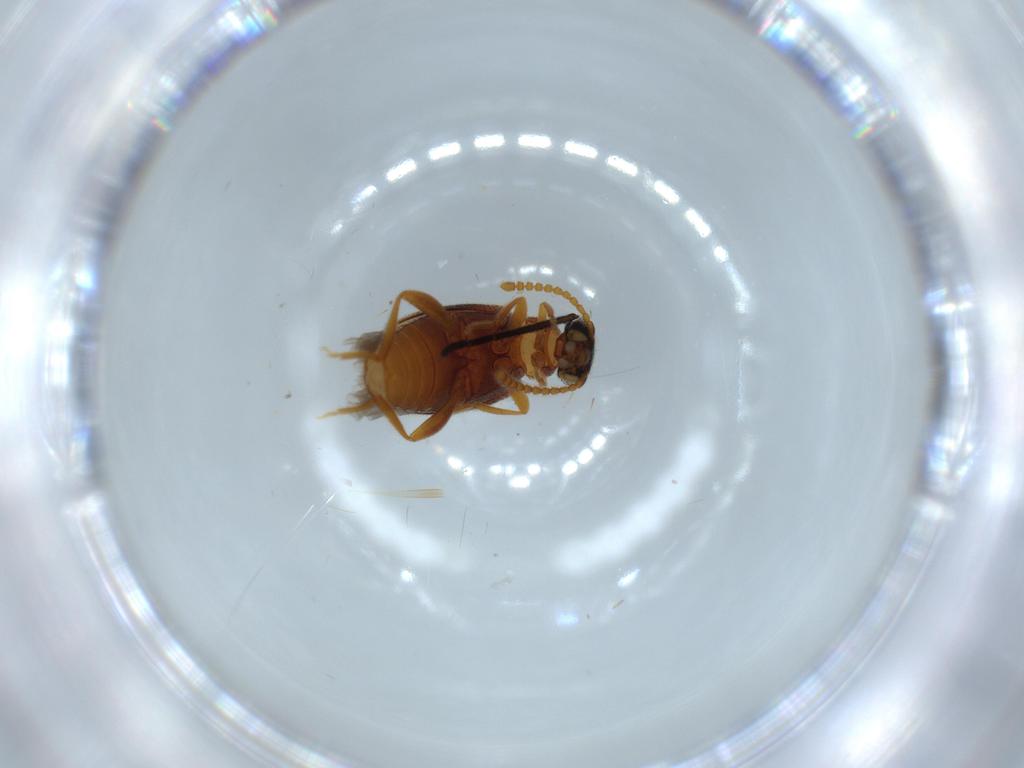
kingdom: Animalia
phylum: Arthropoda
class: Insecta
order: Coleoptera
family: Aderidae
